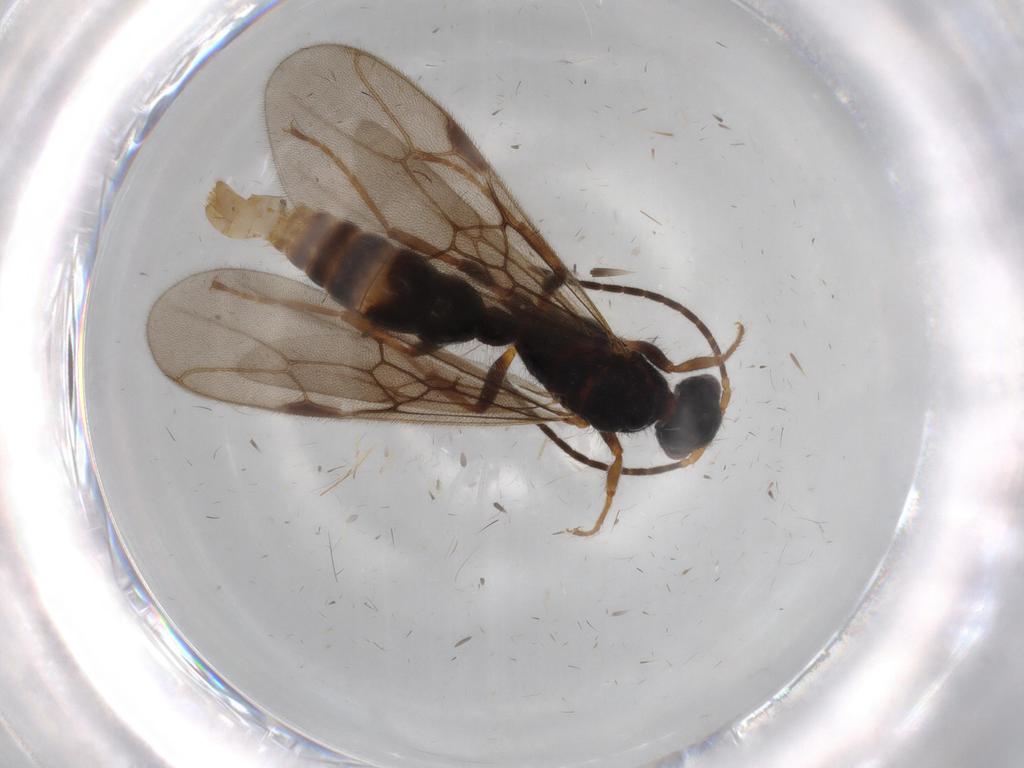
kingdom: Animalia
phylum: Arthropoda
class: Insecta
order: Hymenoptera
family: Formicidae
